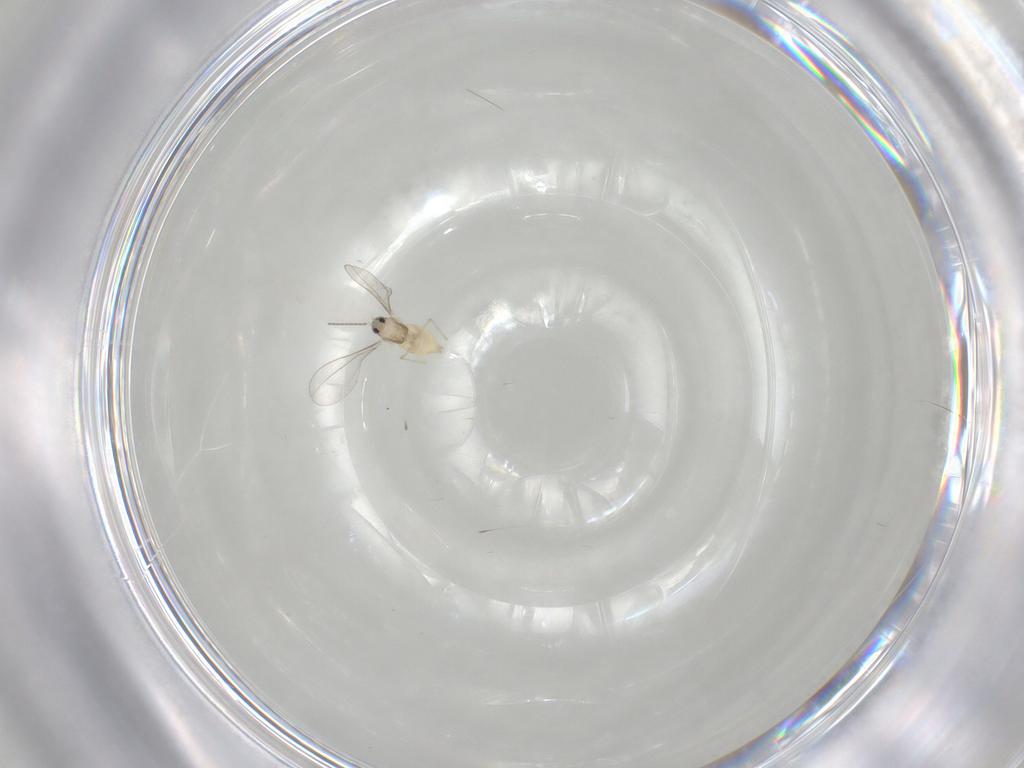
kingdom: Animalia
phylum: Arthropoda
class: Insecta
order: Diptera
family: Cecidomyiidae
